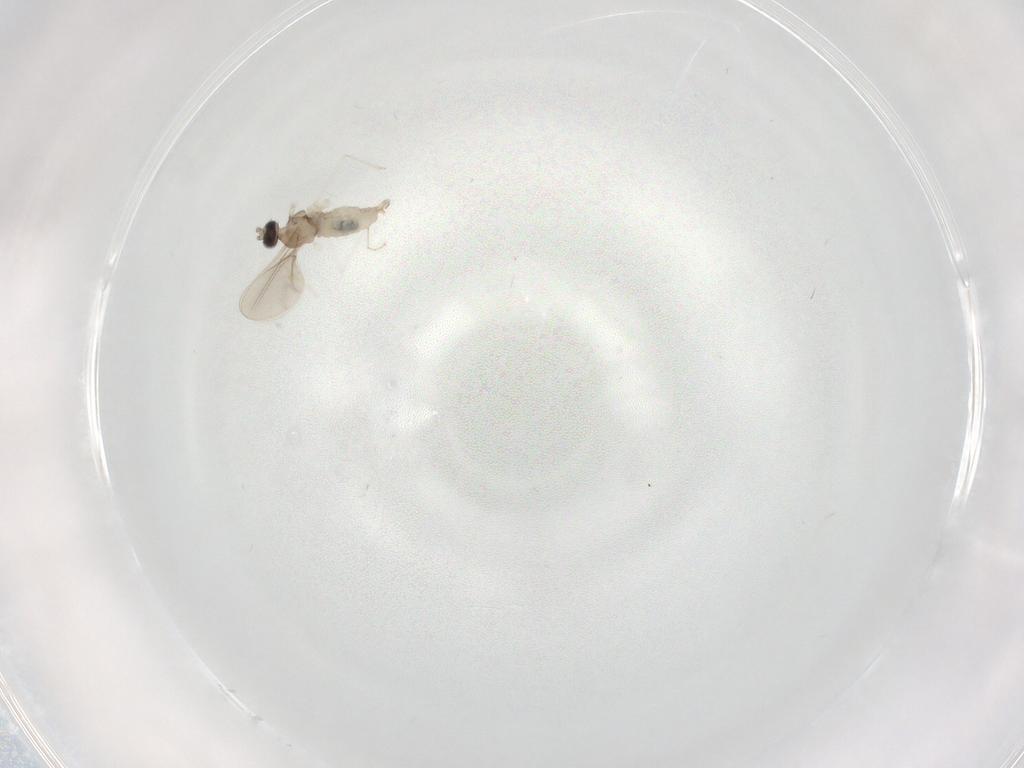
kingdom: Animalia
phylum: Arthropoda
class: Insecta
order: Diptera
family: Cecidomyiidae
